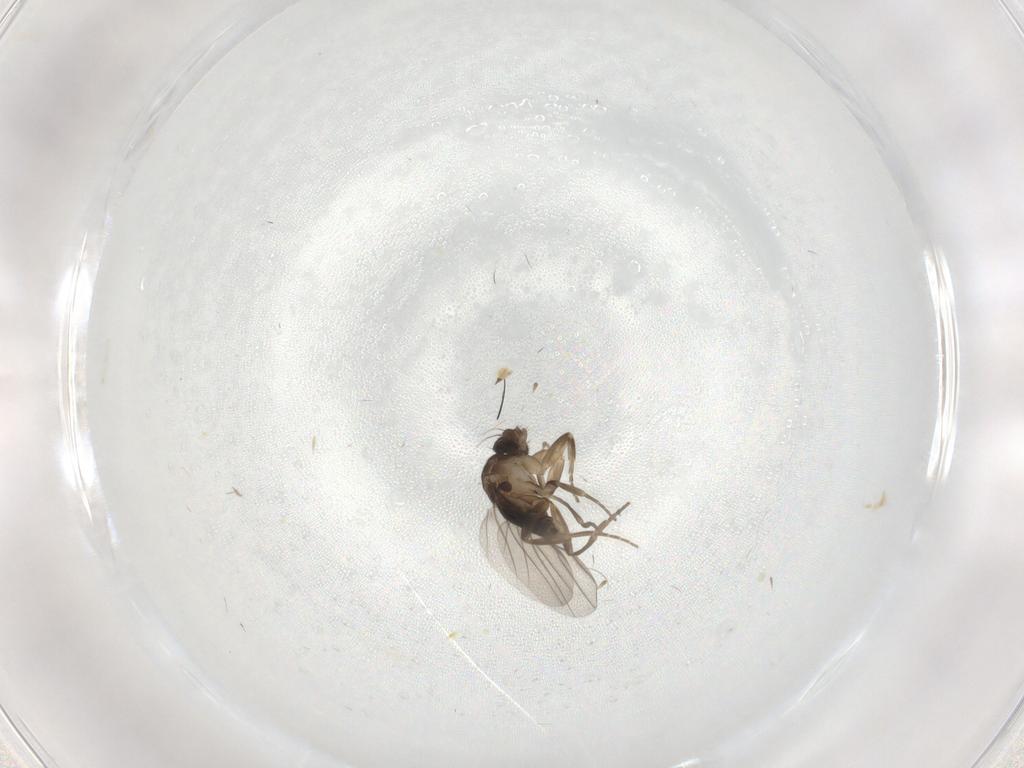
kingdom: Animalia
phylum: Arthropoda
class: Insecta
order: Diptera
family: Phoridae
